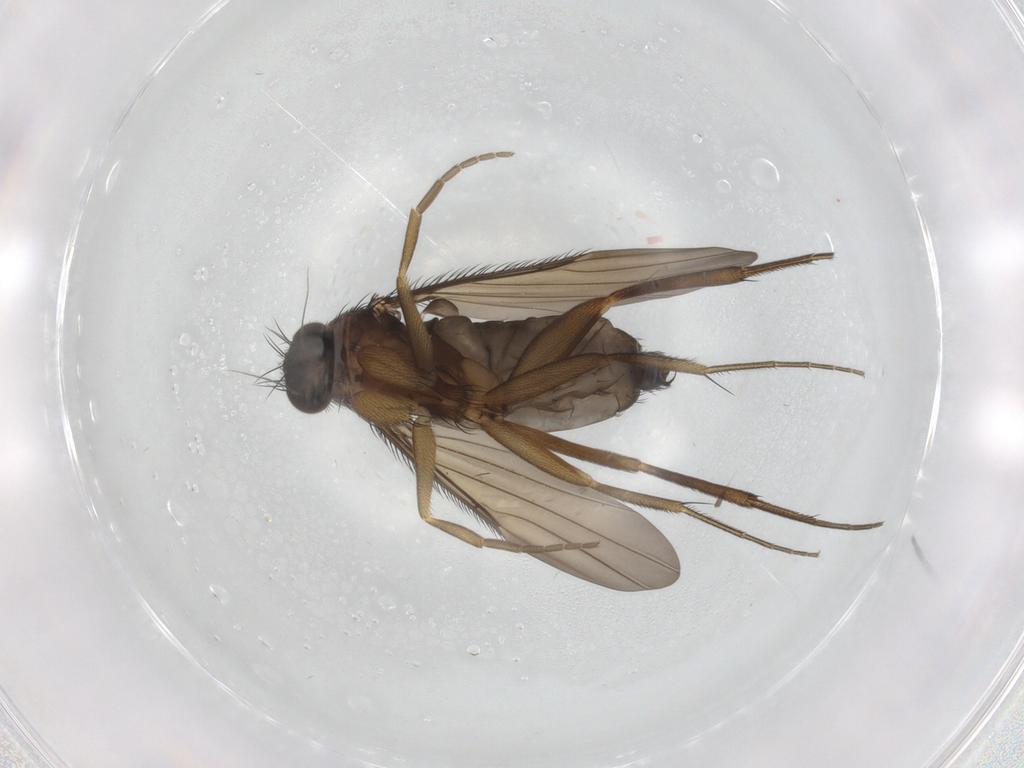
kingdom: Animalia
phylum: Arthropoda
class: Insecta
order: Diptera
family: Phoridae
